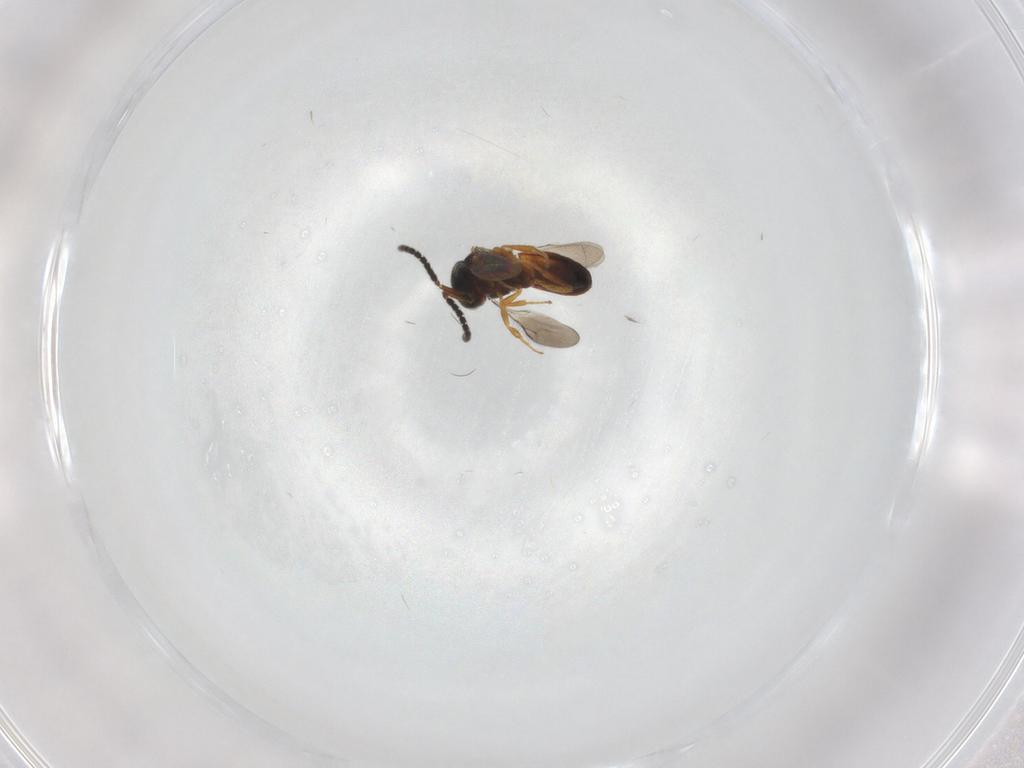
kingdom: Animalia
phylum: Arthropoda
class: Insecta
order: Hymenoptera
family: Scelionidae
